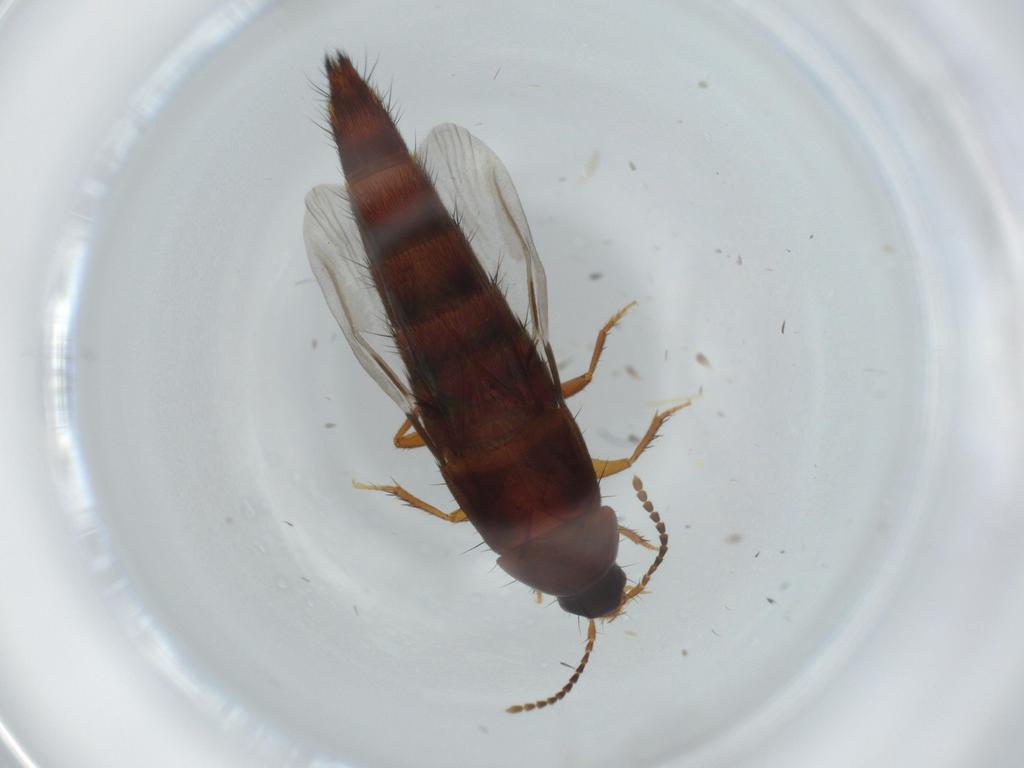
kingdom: Animalia
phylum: Arthropoda
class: Insecta
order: Coleoptera
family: Staphylinidae
